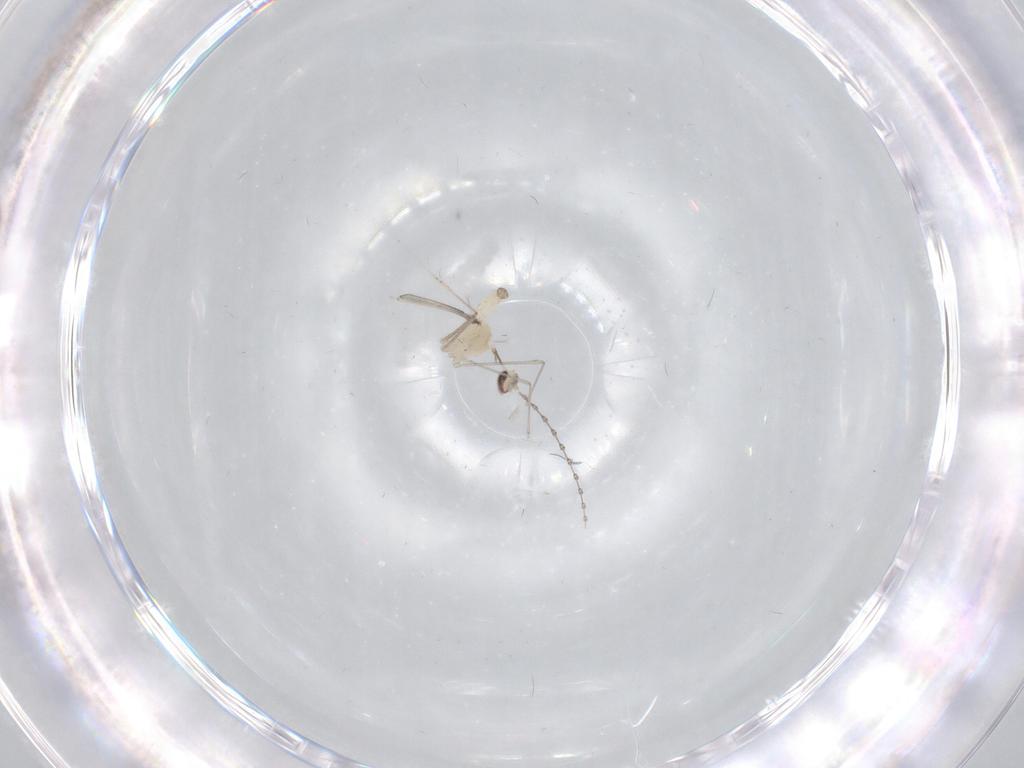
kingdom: Animalia
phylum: Arthropoda
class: Insecta
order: Diptera
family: Cecidomyiidae
